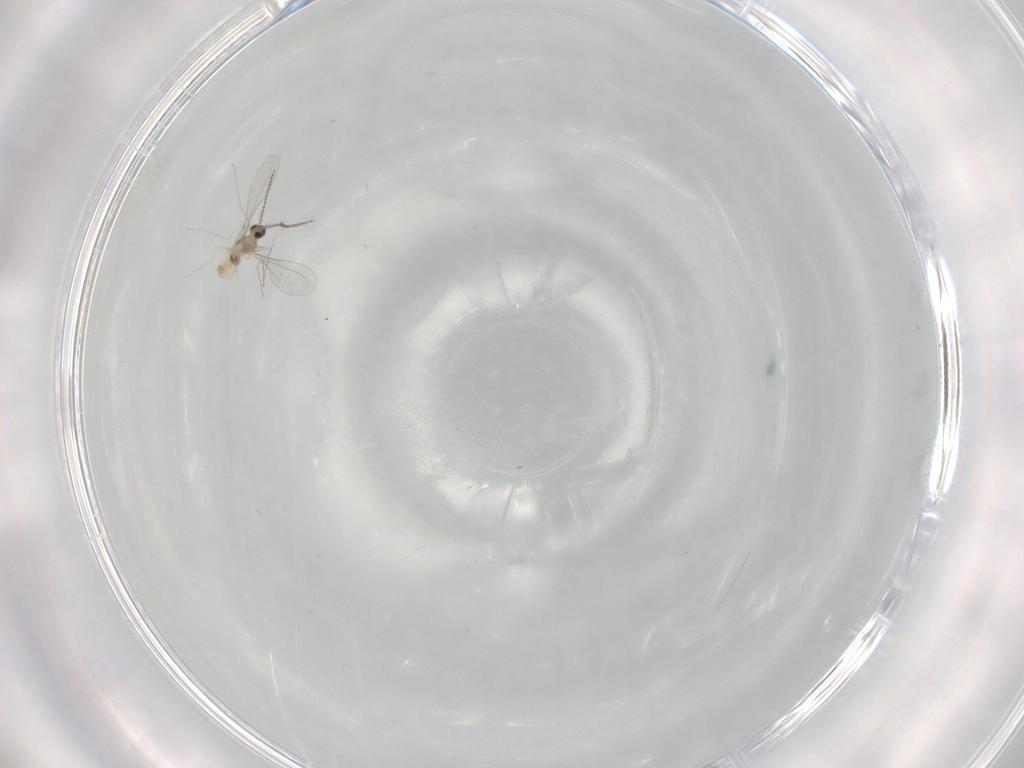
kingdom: Animalia
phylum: Arthropoda
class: Insecta
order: Diptera
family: Cecidomyiidae
